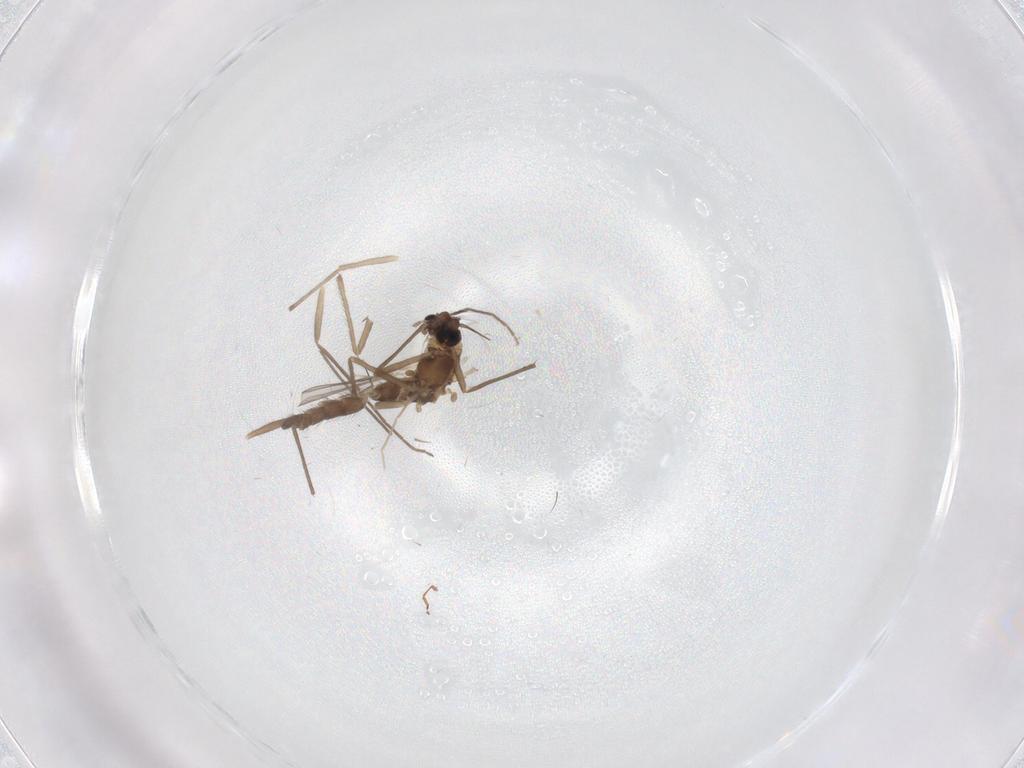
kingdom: Animalia
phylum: Arthropoda
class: Insecta
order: Diptera
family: Chironomidae
